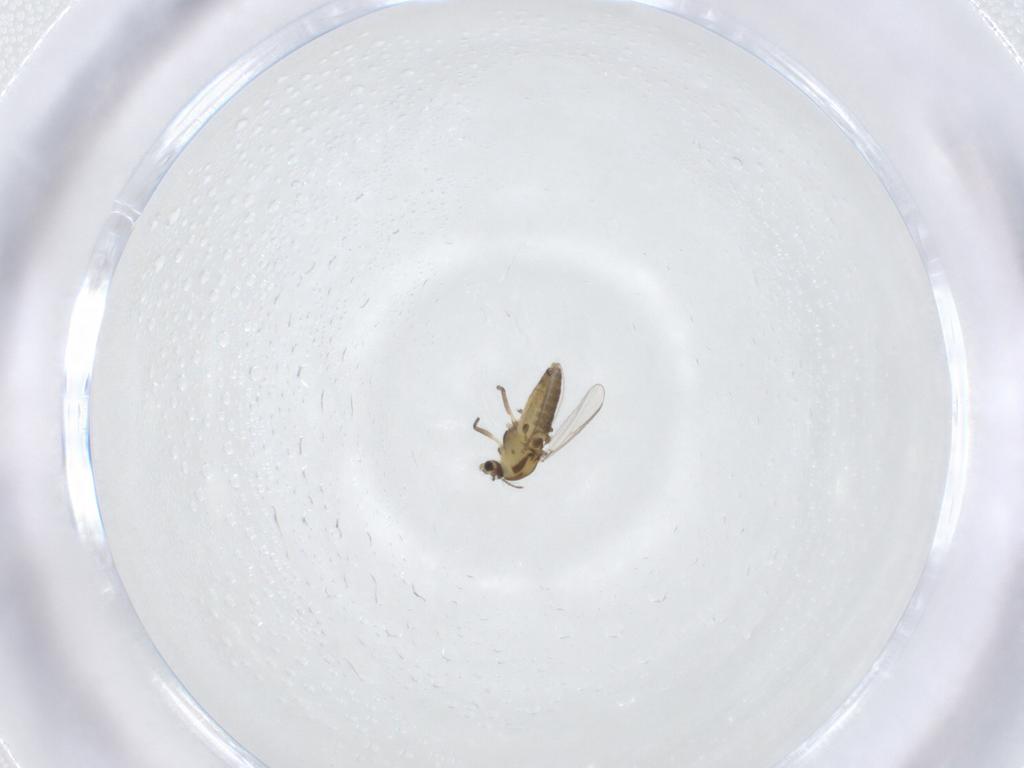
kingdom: Animalia
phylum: Arthropoda
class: Insecta
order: Diptera
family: Chironomidae
